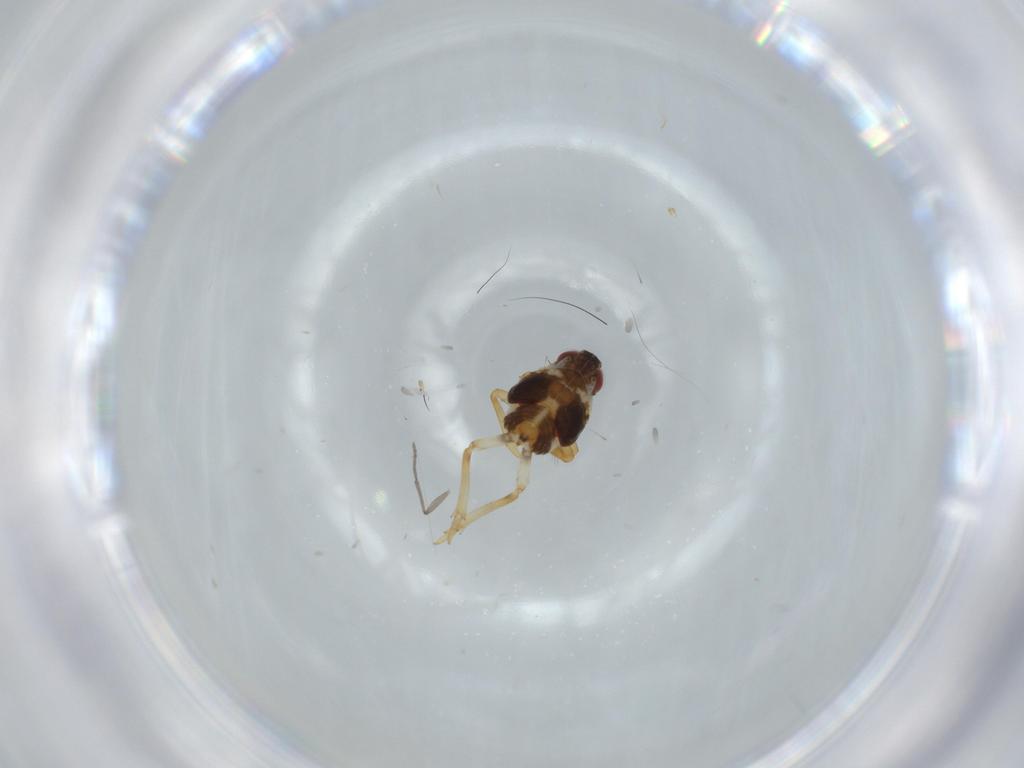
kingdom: Animalia
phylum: Arthropoda
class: Insecta
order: Hemiptera
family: Issidae
